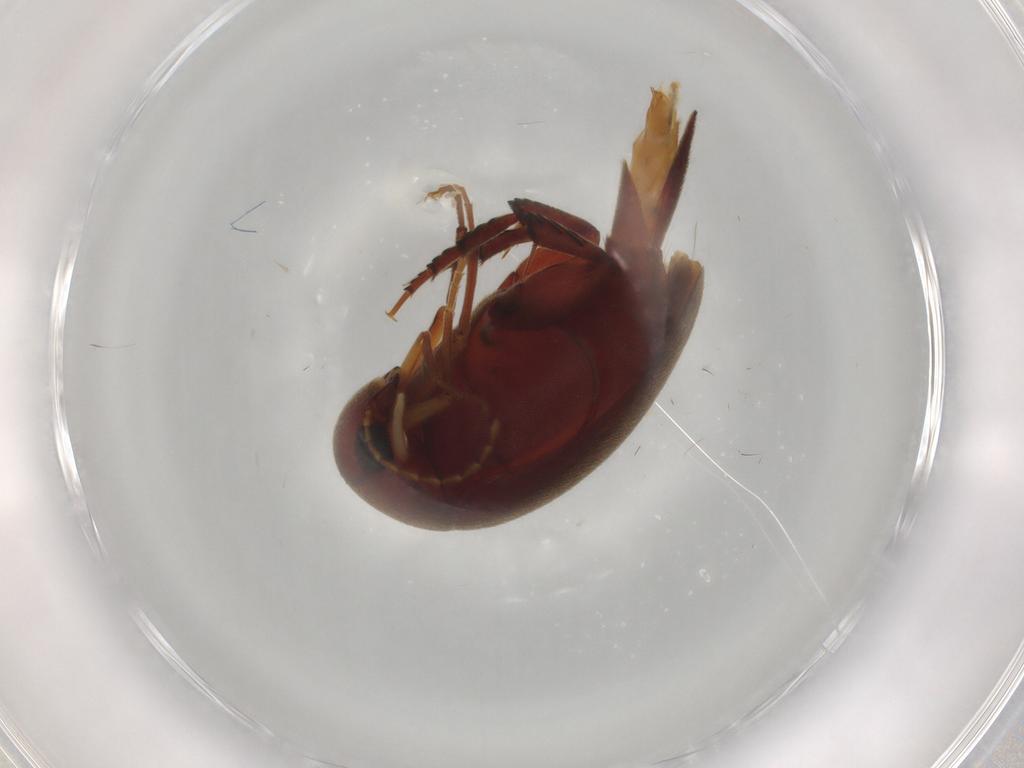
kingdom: Animalia
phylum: Arthropoda
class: Insecta
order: Coleoptera
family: Mordellidae
